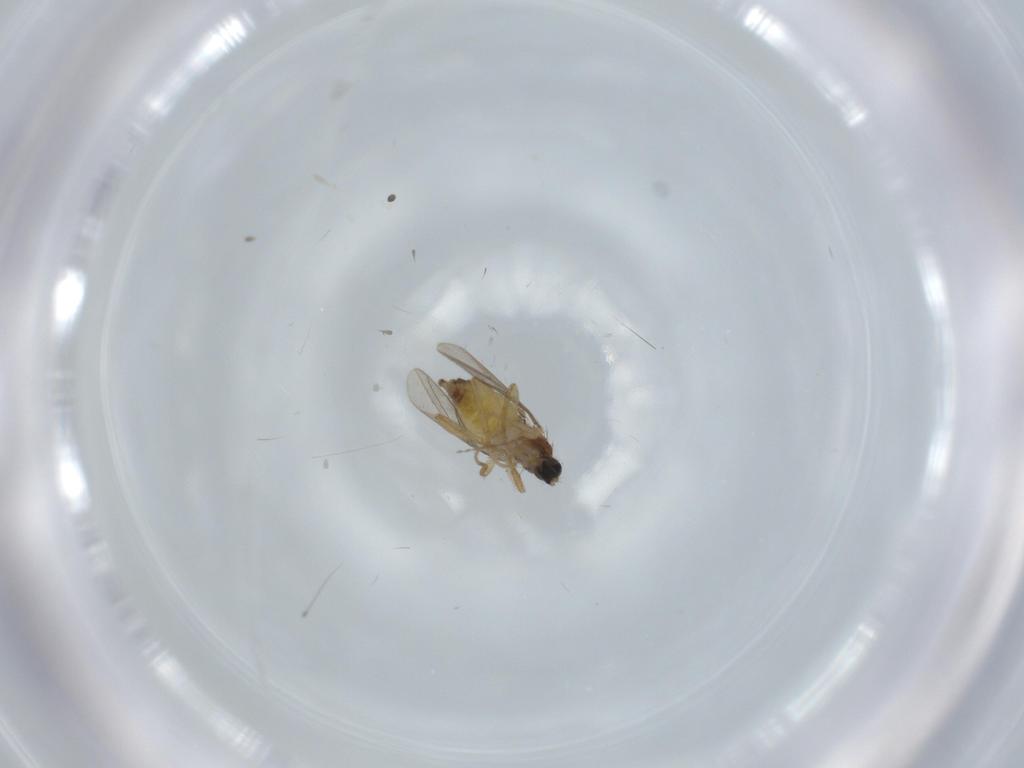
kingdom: Animalia
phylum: Arthropoda
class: Insecta
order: Diptera
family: Hybotidae
